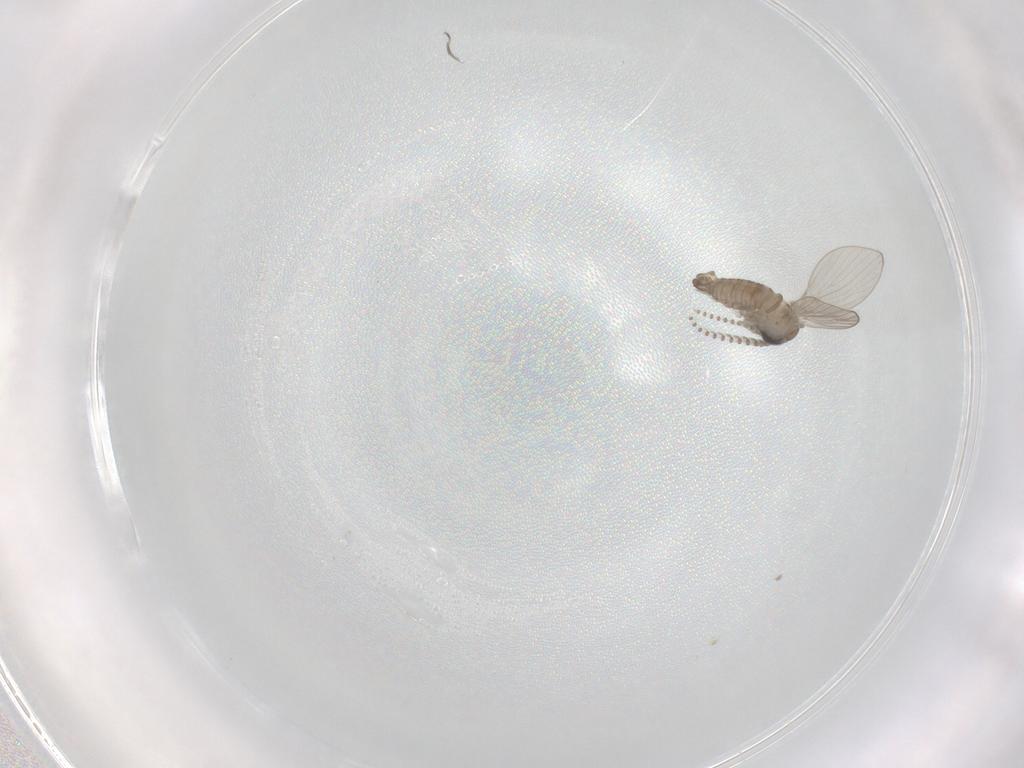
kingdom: Animalia
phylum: Arthropoda
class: Insecta
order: Diptera
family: Psychodidae
